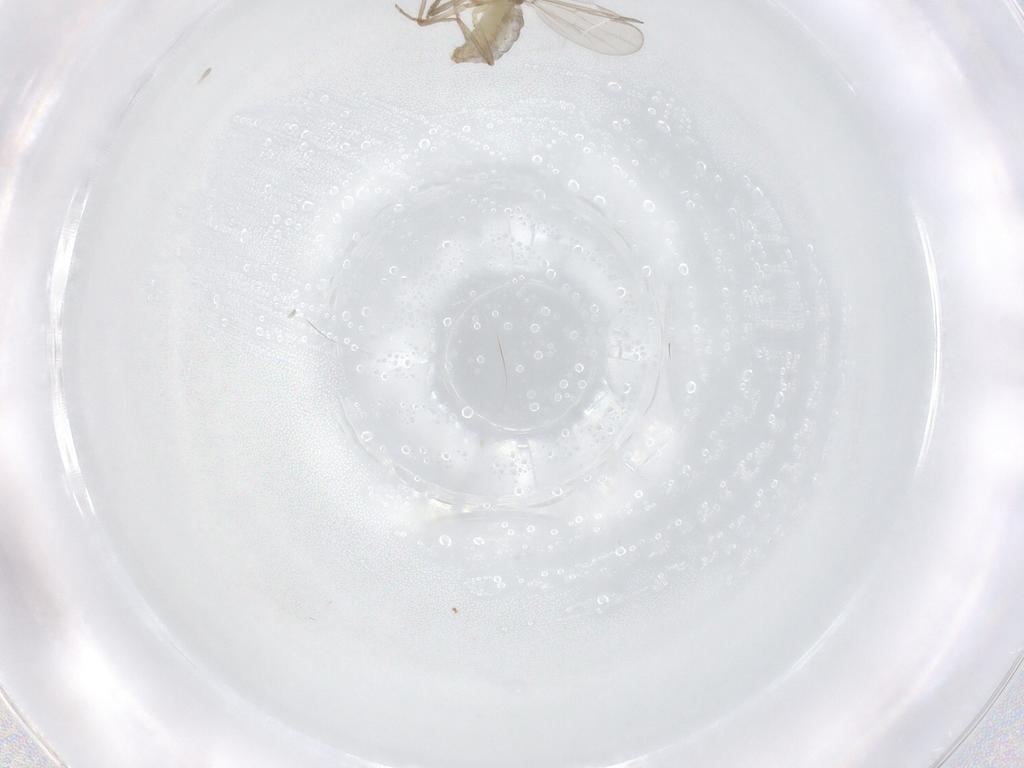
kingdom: Animalia
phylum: Arthropoda
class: Insecta
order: Diptera
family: Chironomidae
